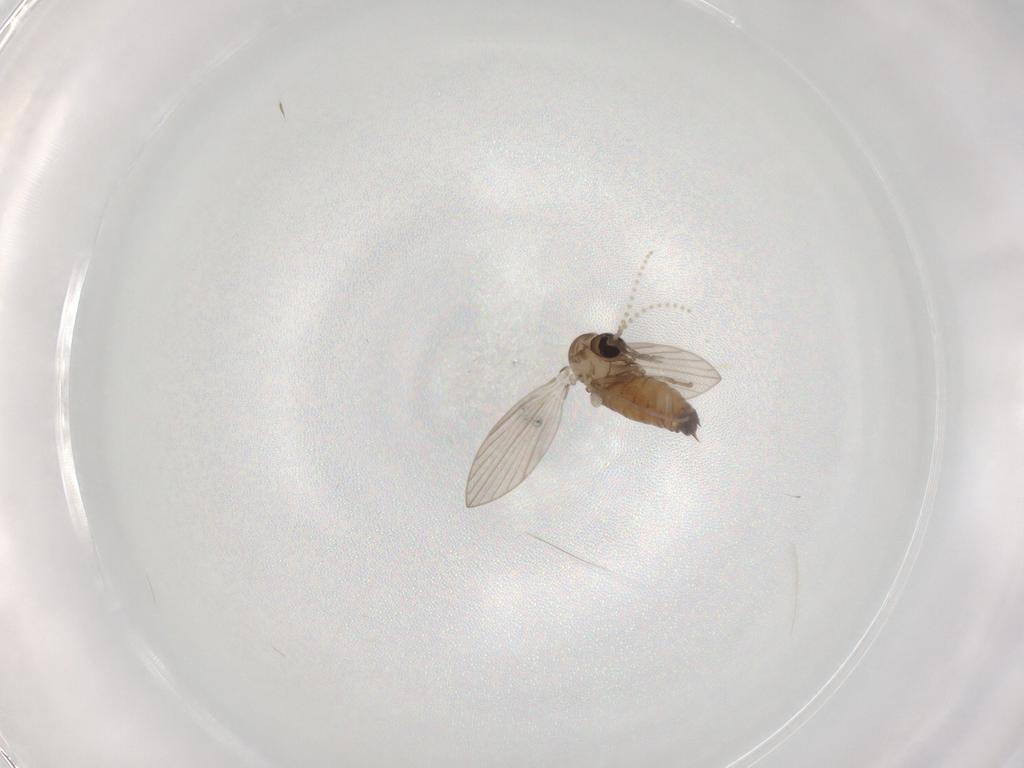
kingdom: Animalia
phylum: Arthropoda
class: Insecta
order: Diptera
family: Psychodidae
